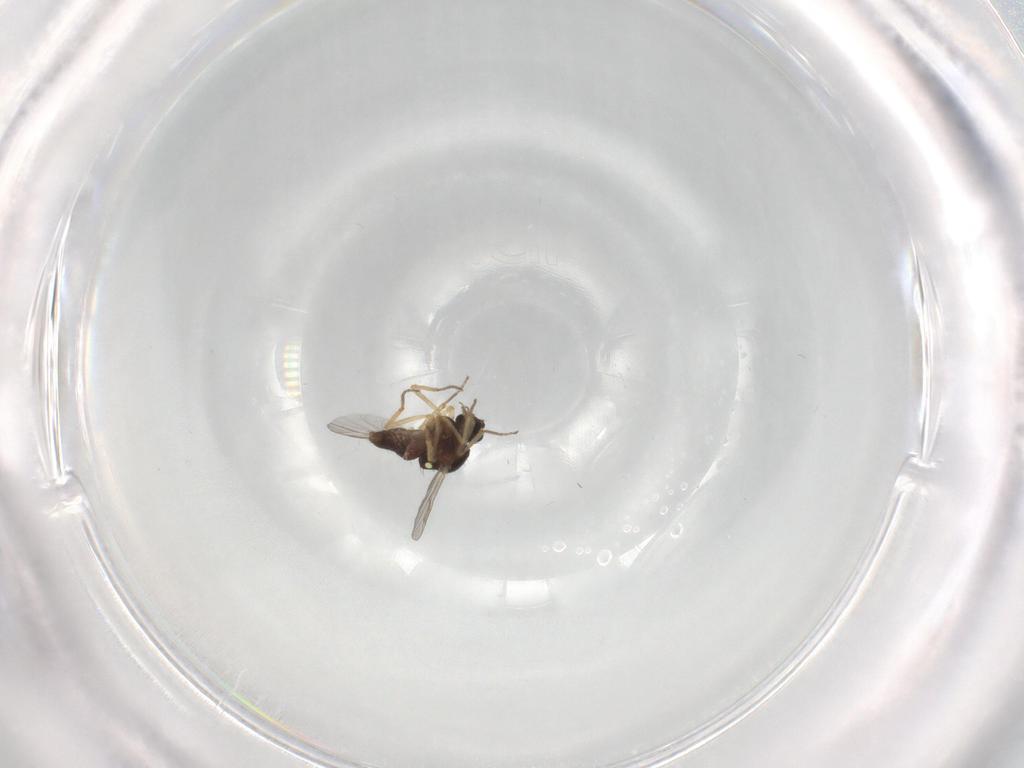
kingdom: Animalia
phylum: Arthropoda
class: Insecta
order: Diptera
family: Ceratopogonidae
